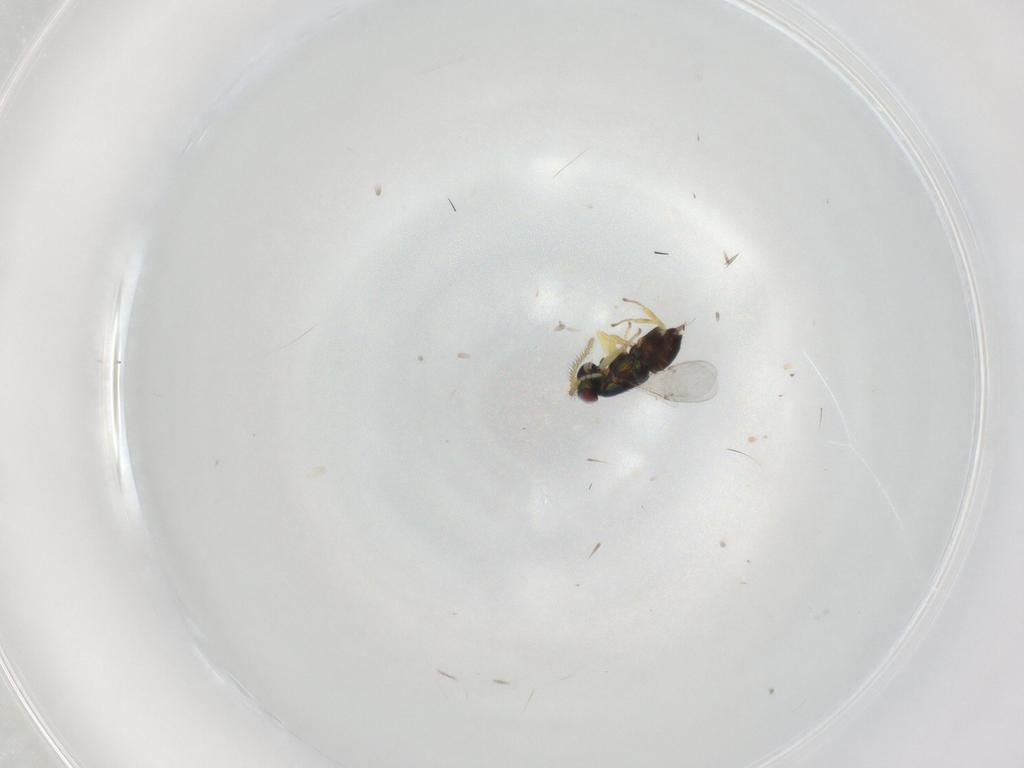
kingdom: Animalia
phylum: Arthropoda
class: Insecta
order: Hymenoptera
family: Encyrtidae
